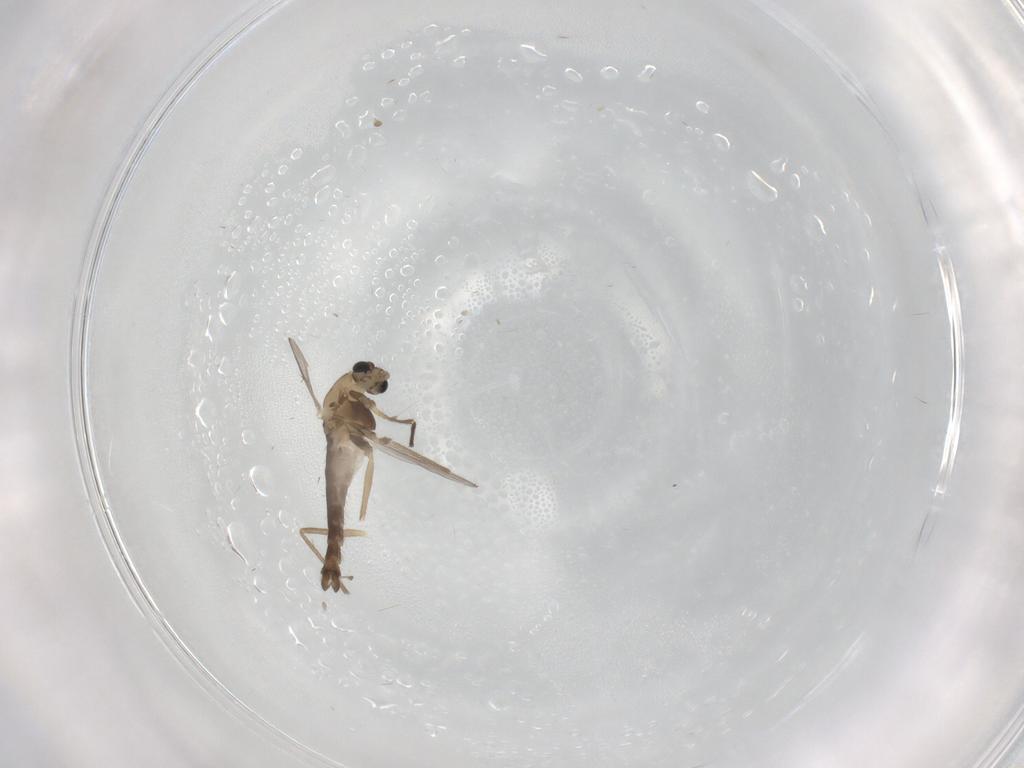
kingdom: Animalia
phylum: Arthropoda
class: Insecta
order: Diptera
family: Chironomidae
